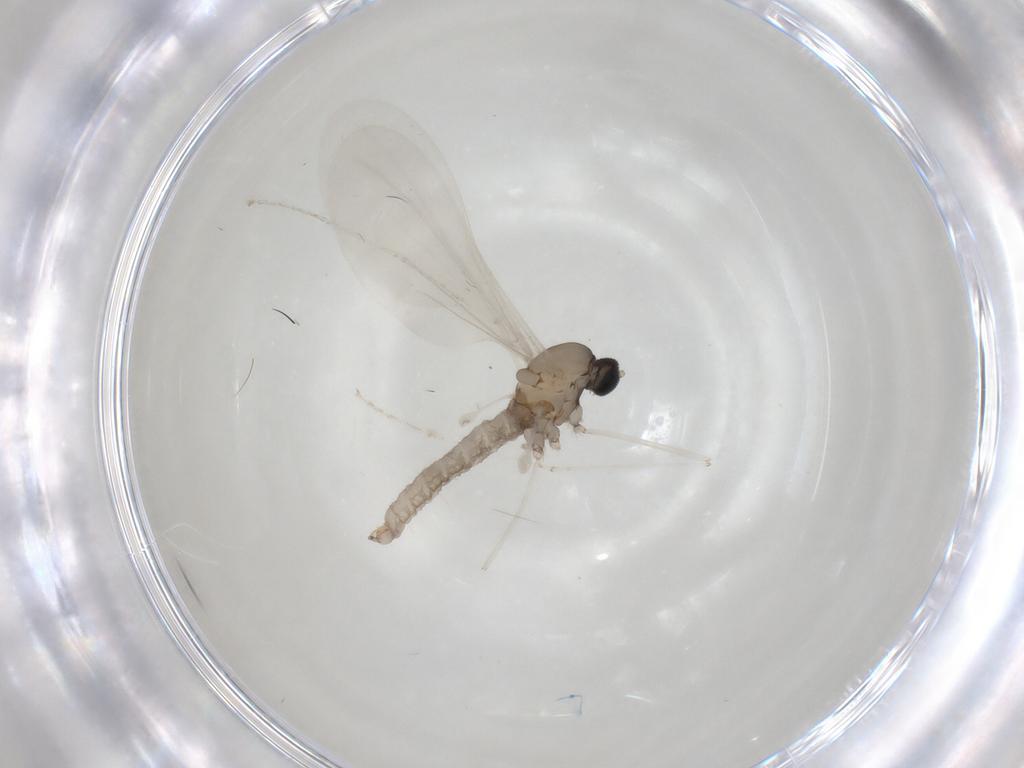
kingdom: Animalia
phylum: Arthropoda
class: Insecta
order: Diptera
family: Cecidomyiidae
